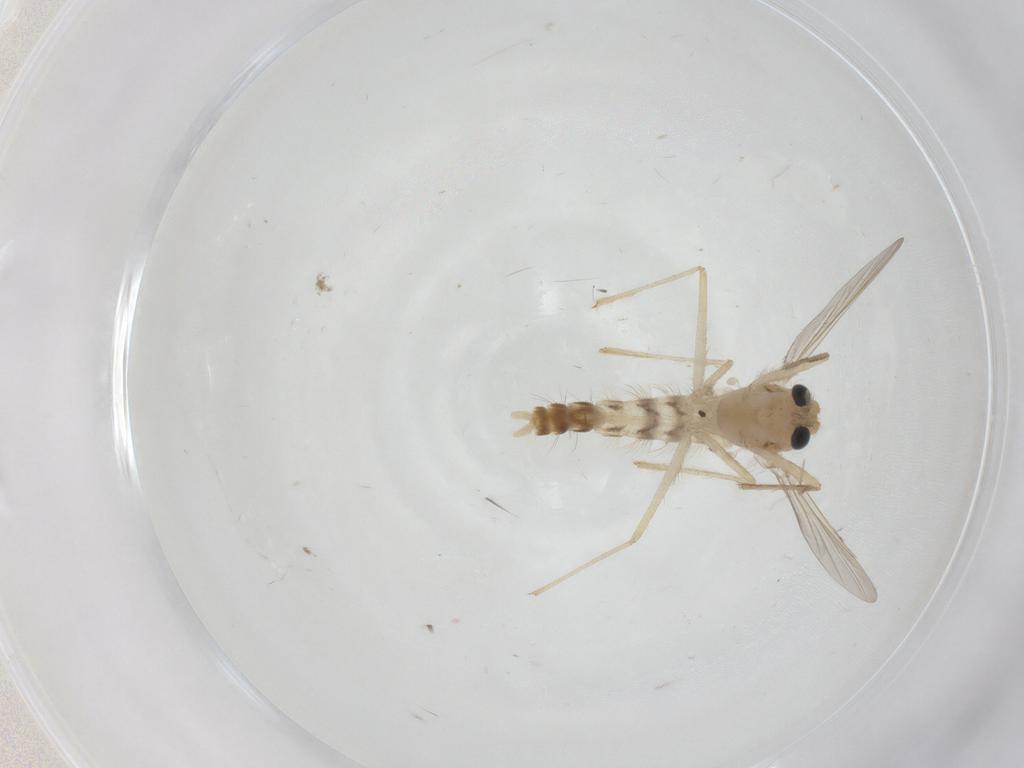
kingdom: Animalia
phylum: Arthropoda
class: Insecta
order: Diptera
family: Chironomidae
